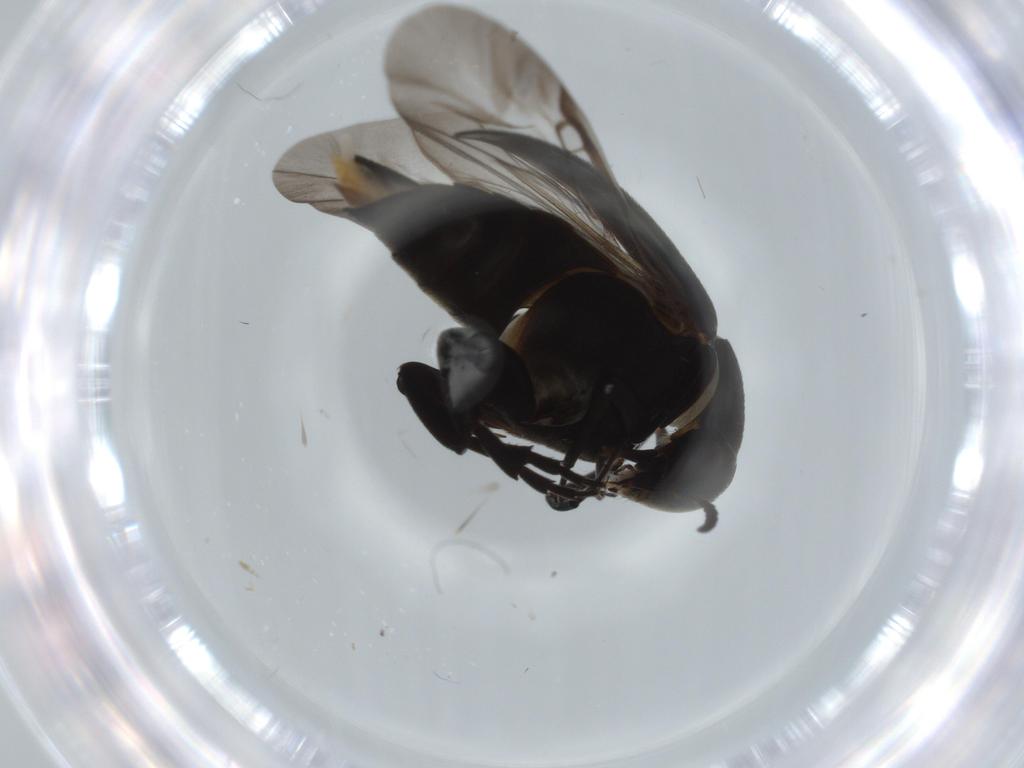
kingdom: Animalia
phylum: Arthropoda
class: Insecta
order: Coleoptera
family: Mordellidae
